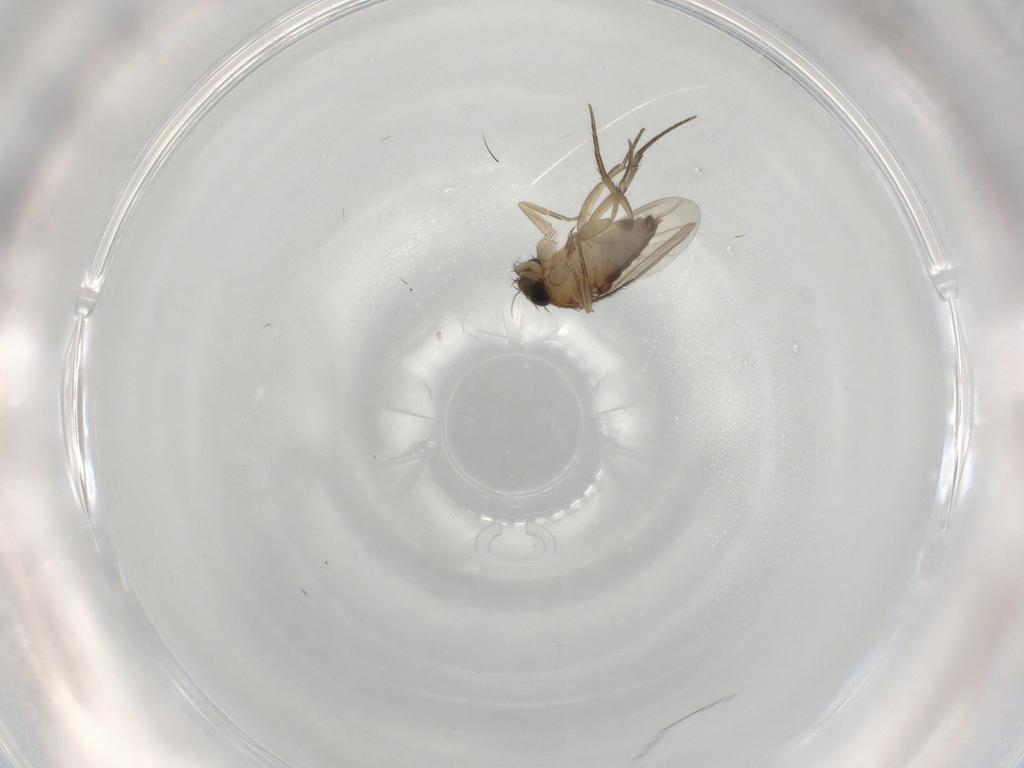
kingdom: Animalia
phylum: Arthropoda
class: Insecta
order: Diptera
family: Phoridae
